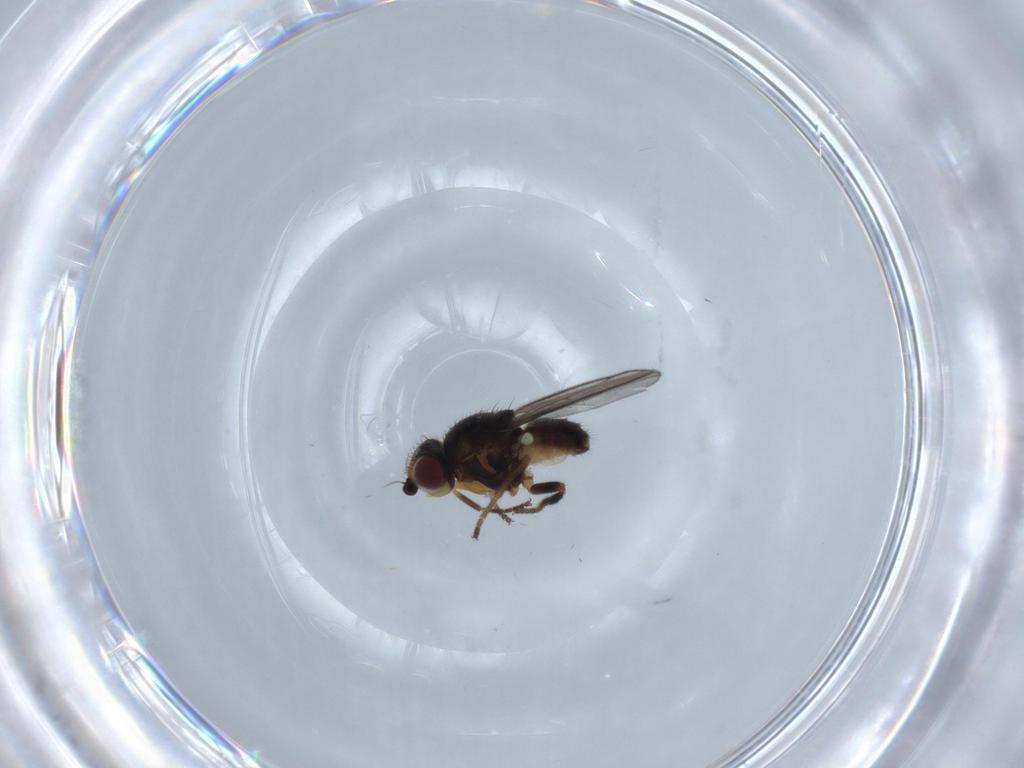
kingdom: Animalia
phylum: Arthropoda
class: Insecta
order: Diptera
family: Chloropidae
